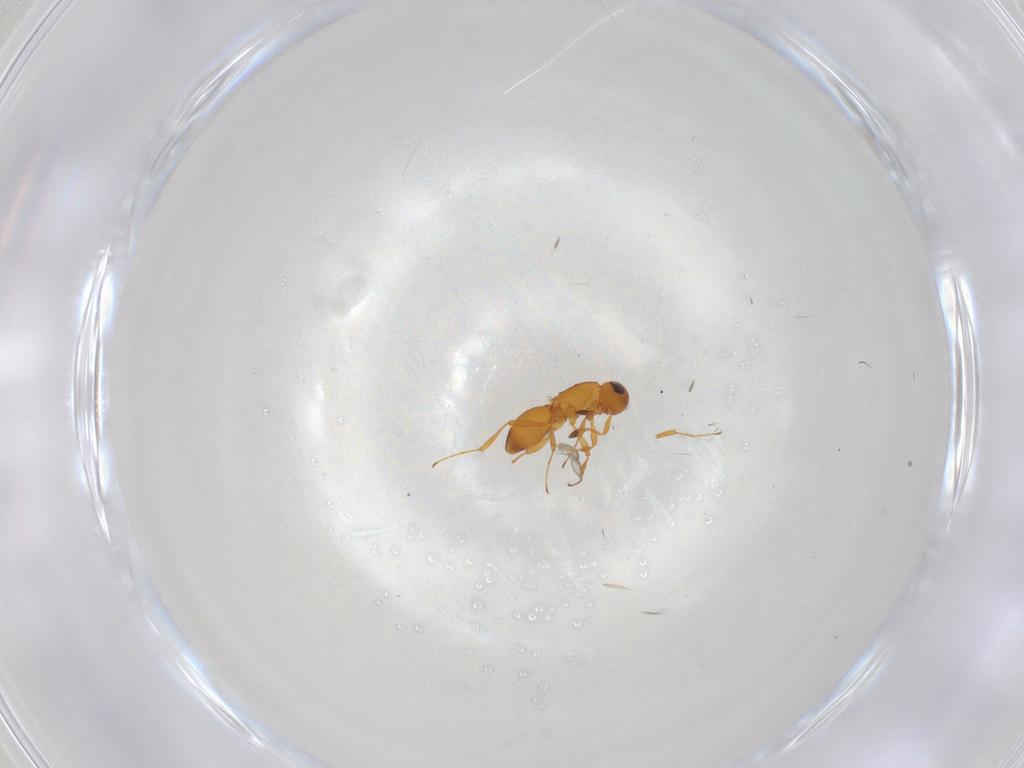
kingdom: Animalia
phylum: Arthropoda
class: Insecta
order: Hymenoptera
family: Platygastridae
